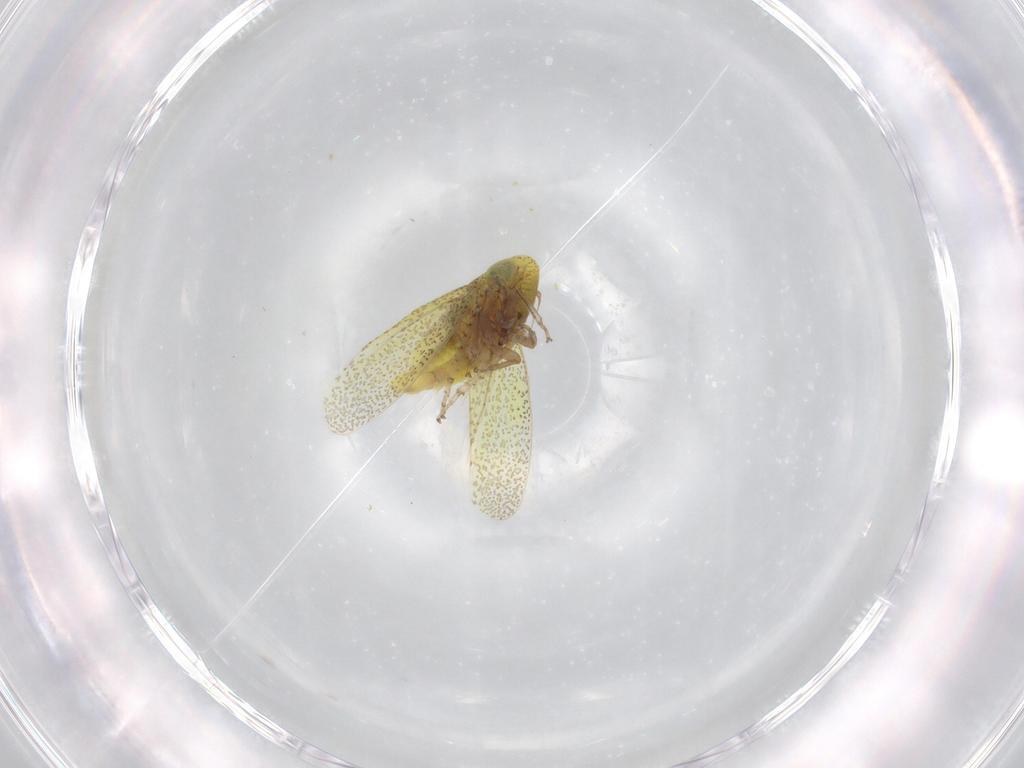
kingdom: Animalia
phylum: Arthropoda
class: Insecta
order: Hemiptera
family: Cicadellidae
